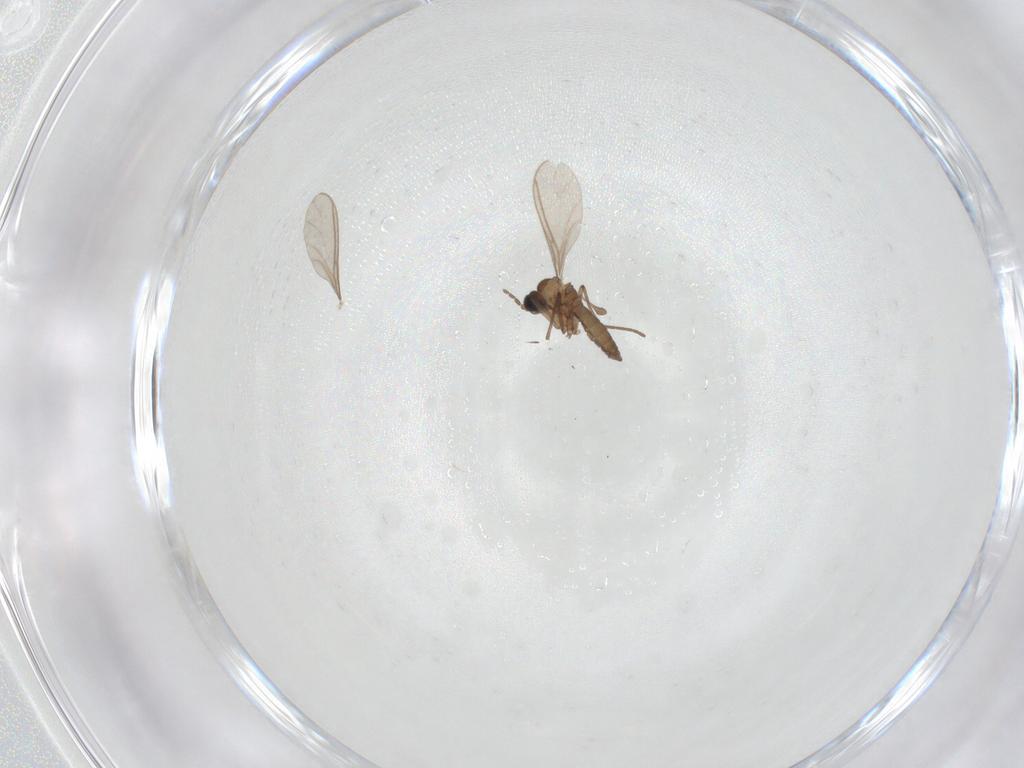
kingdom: Animalia
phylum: Arthropoda
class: Insecta
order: Diptera
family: Sciaridae
